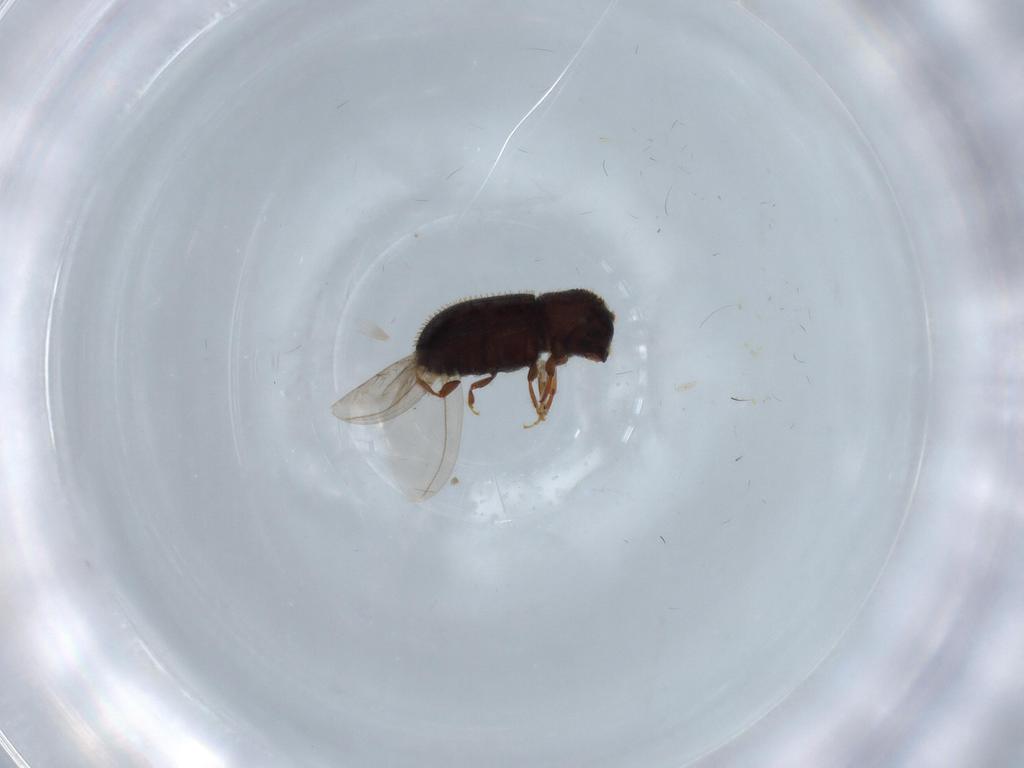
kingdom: Animalia
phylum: Arthropoda
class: Insecta
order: Coleoptera
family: Curculionidae
